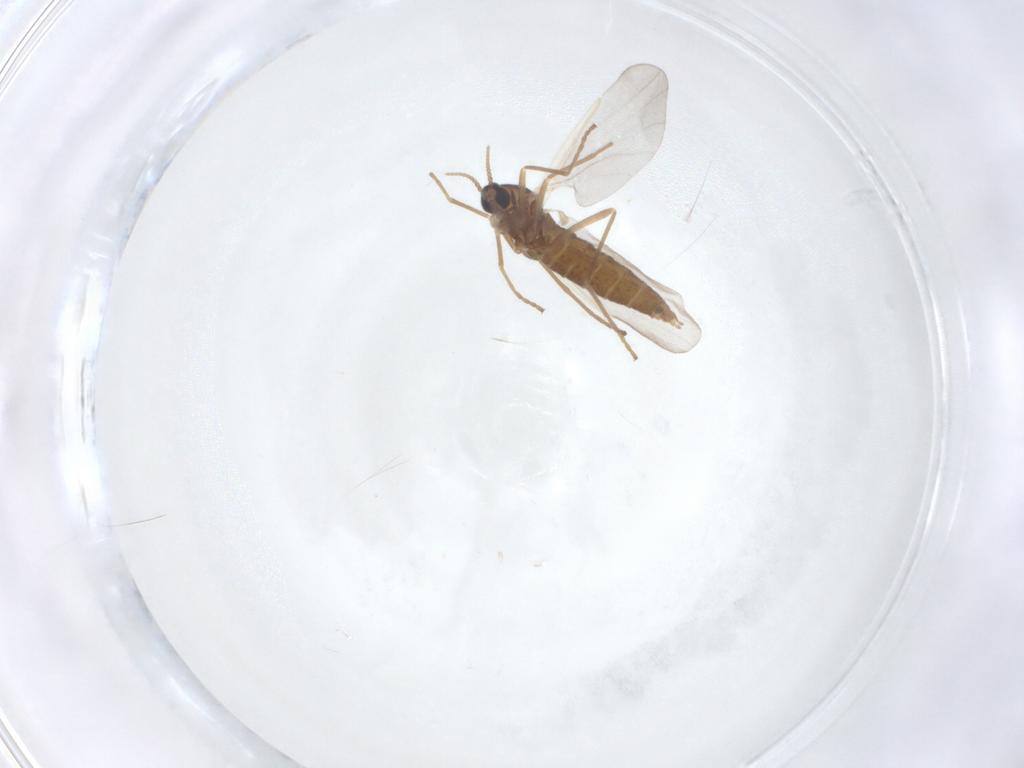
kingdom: Animalia
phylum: Arthropoda
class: Insecta
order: Diptera
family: Cecidomyiidae
